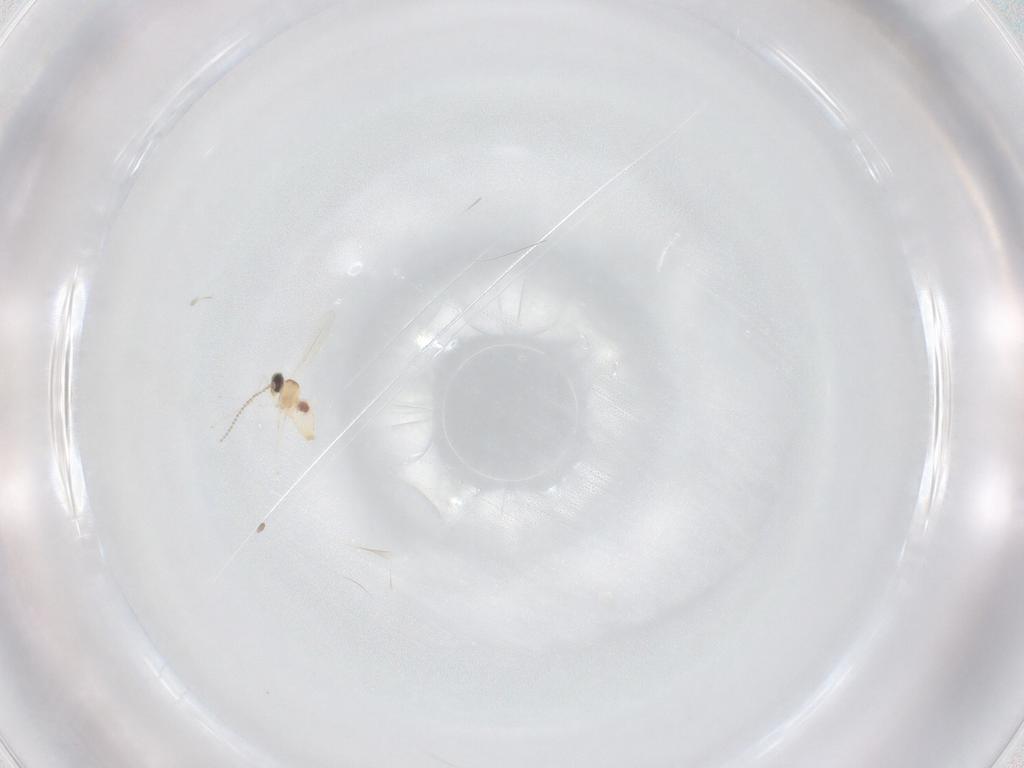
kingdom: Animalia
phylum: Arthropoda
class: Insecta
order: Diptera
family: Cecidomyiidae
